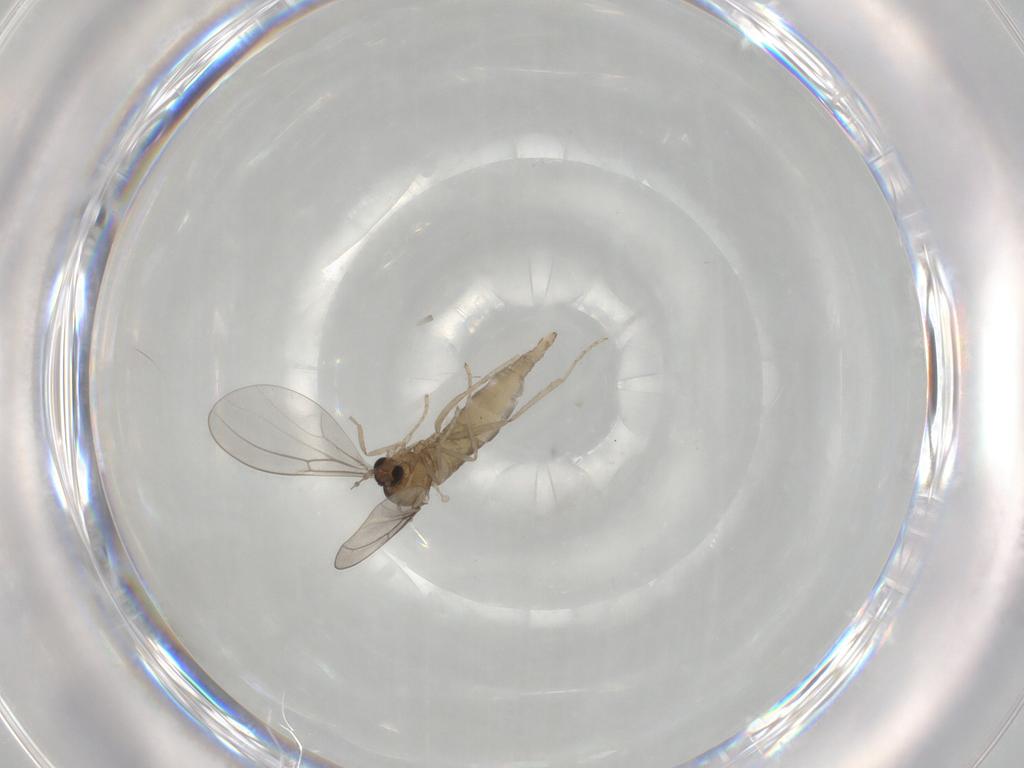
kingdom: Animalia
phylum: Arthropoda
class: Insecta
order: Diptera
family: Cecidomyiidae
